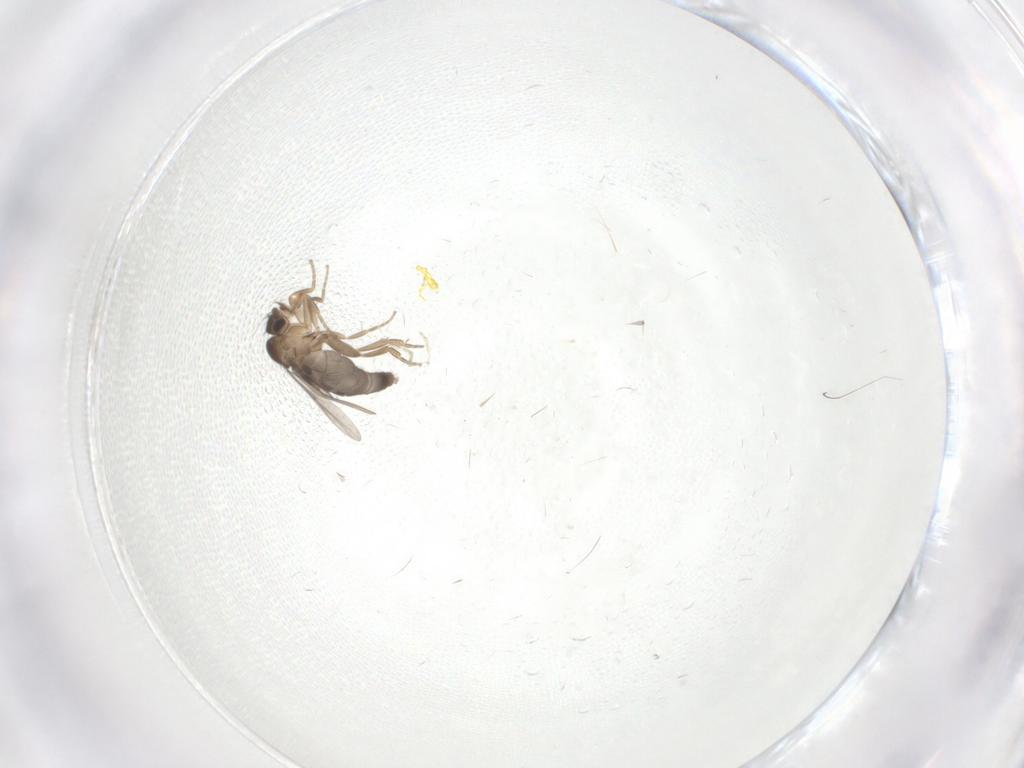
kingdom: Animalia
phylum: Arthropoda
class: Insecta
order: Diptera
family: Phoridae
